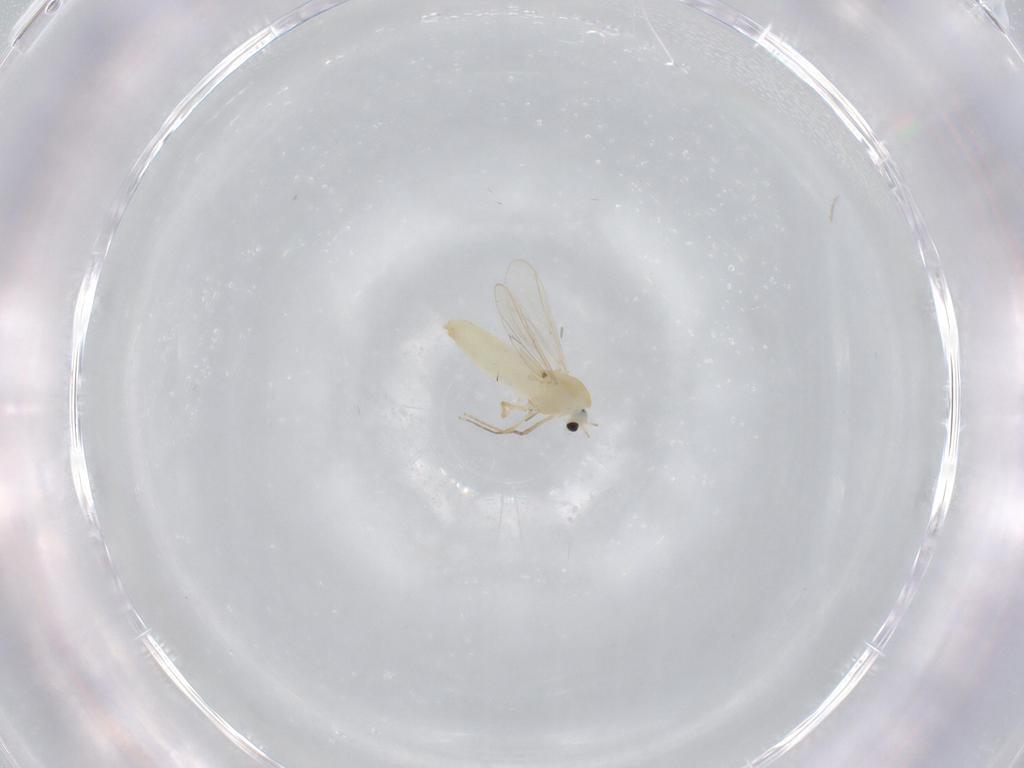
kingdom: Animalia
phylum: Arthropoda
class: Insecta
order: Diptera
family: Chironomidae
